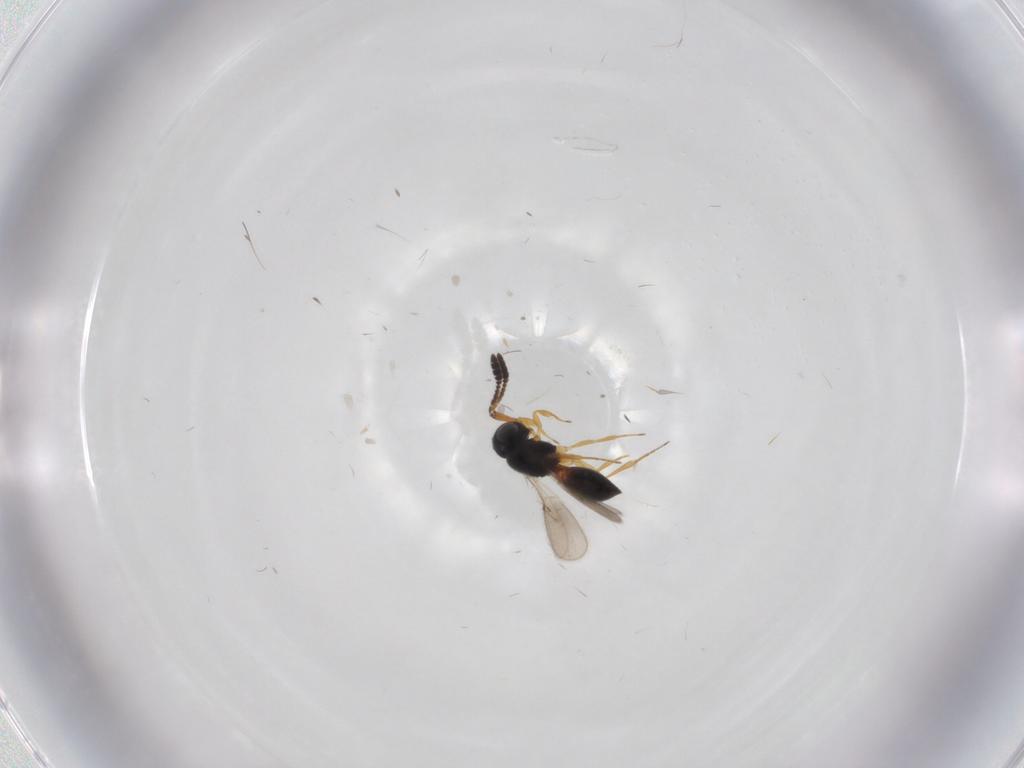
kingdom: Animalia
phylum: Arthropoda
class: Insecta
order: Hymenoptera
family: Scelionidae
